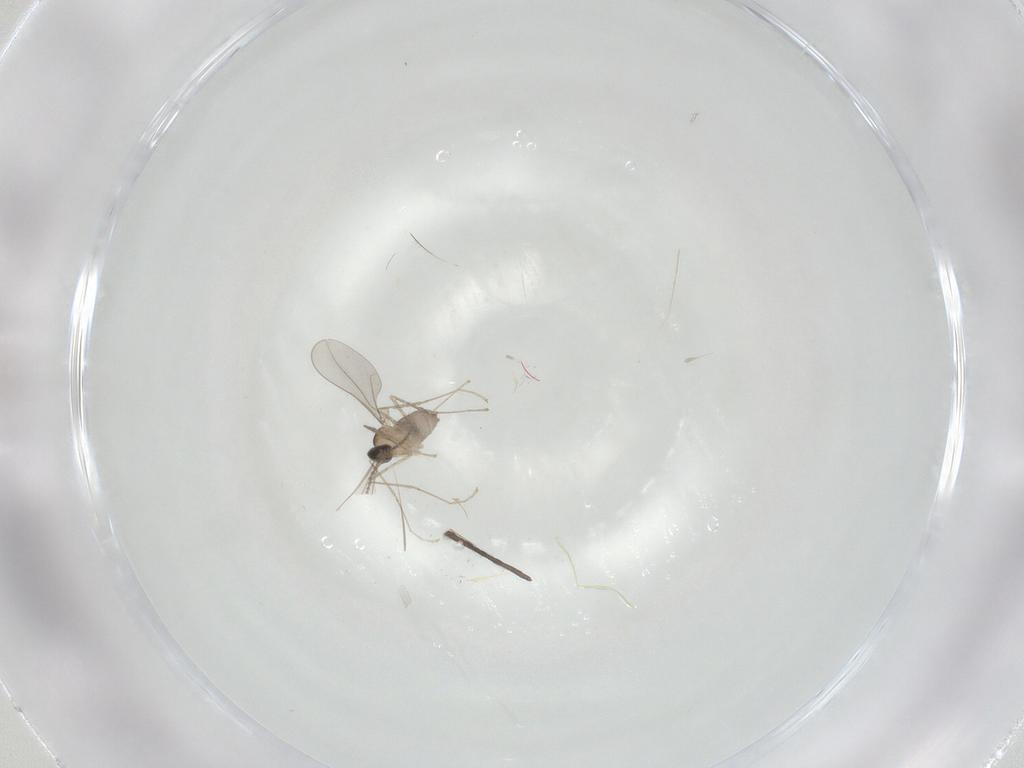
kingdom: Animalia
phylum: Arthropoda
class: Insecta
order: Diptera
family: Cecidomyiidae
